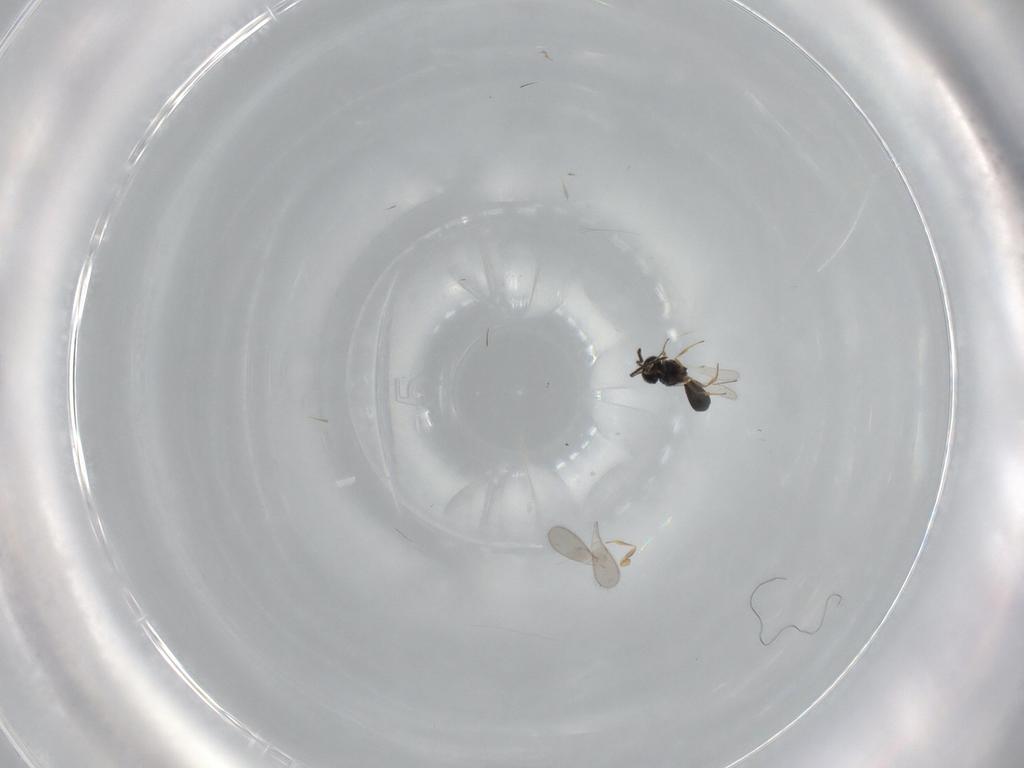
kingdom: Animalia
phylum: Arthropoda
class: Insecta
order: Hymenoptera
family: Scelionidae
